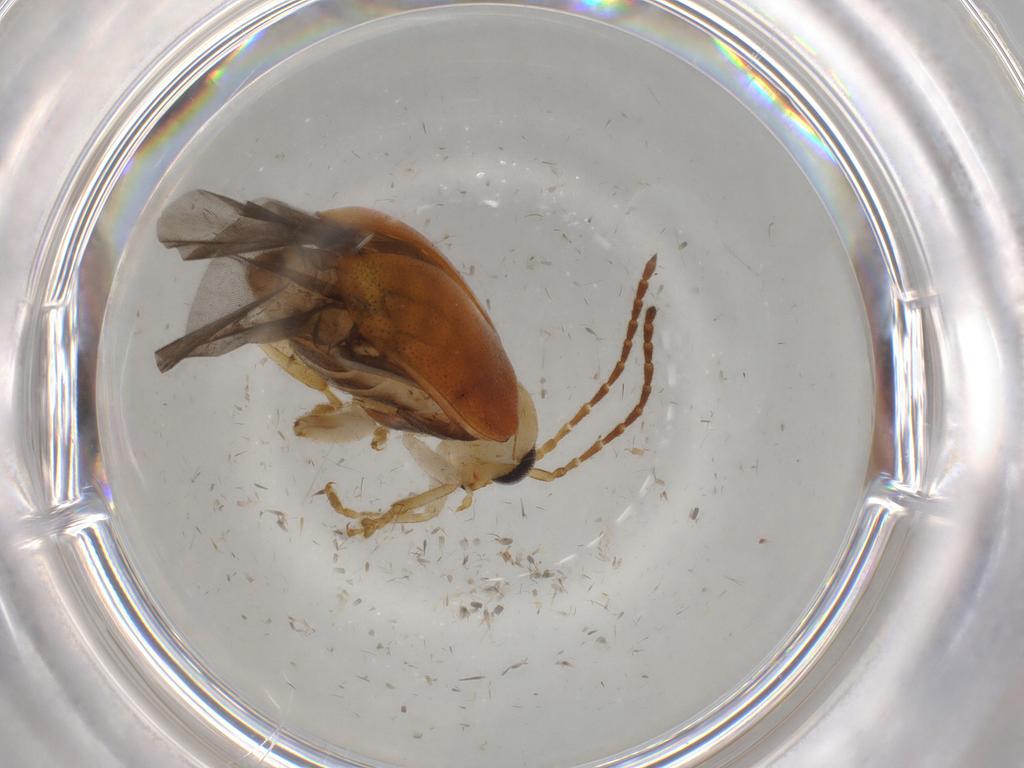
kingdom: Animalia
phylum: Arthropoda
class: Insecta
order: Coleoptera
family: Chrysomelidae
